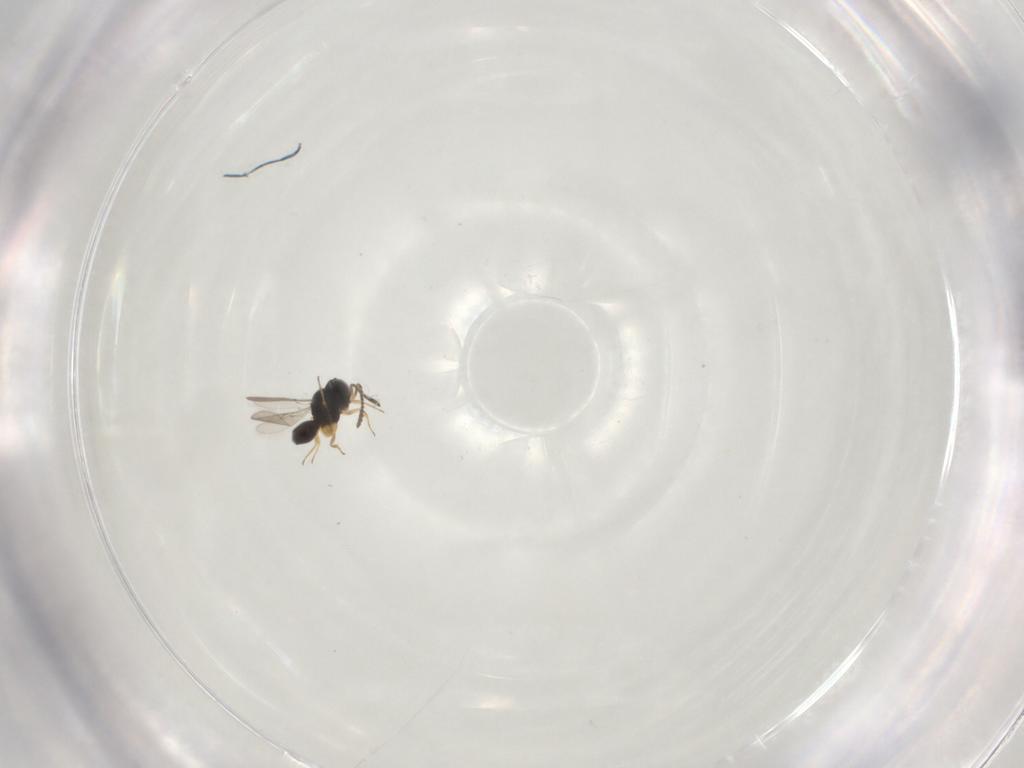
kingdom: Animalia
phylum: Arthropoda
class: Insecta
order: Hymenoptera
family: Scelionidae
